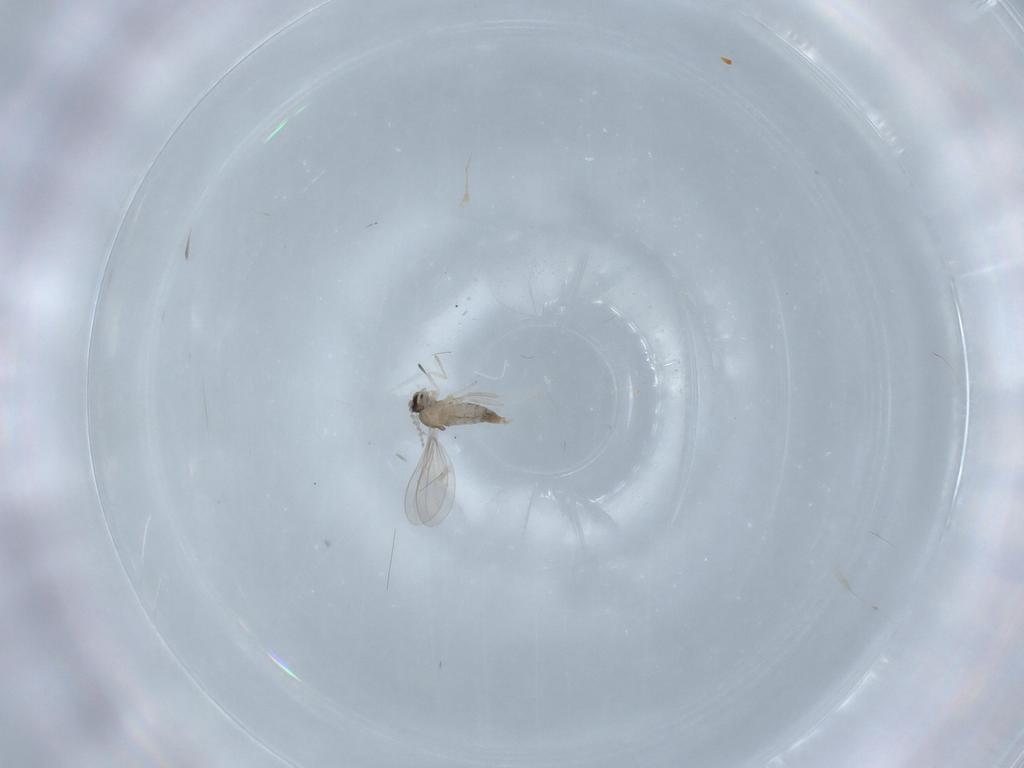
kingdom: Animalia
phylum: Arthropoda
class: Insecta
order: Diptera
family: Cecidomyiidae
